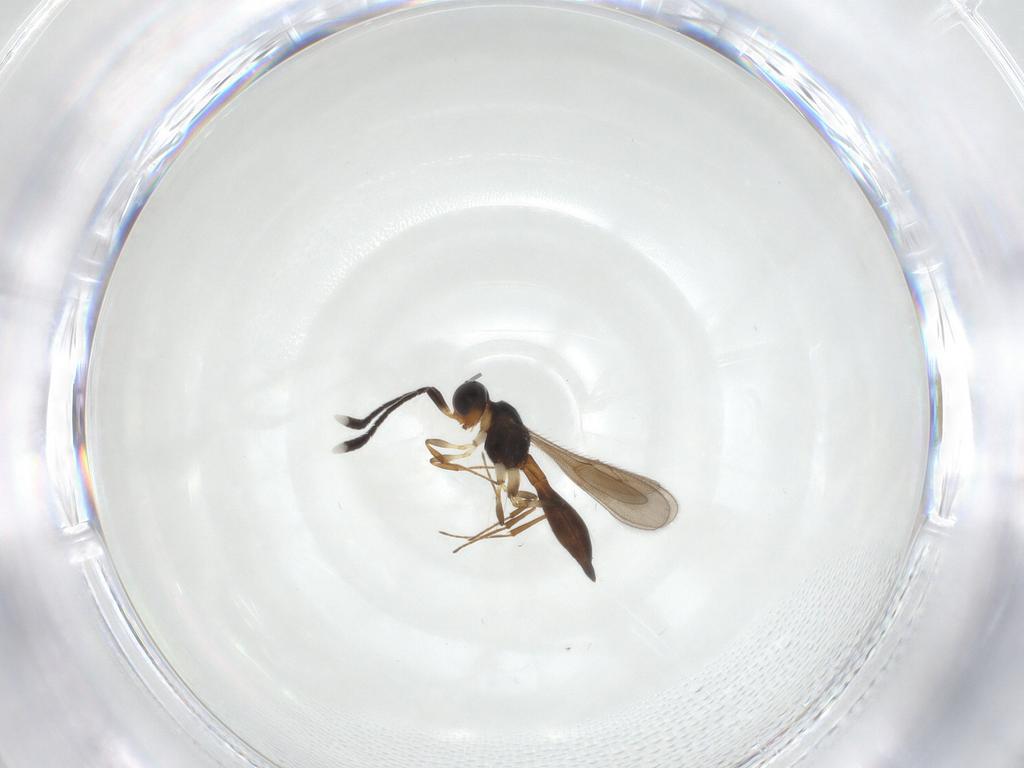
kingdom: Animalia
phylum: Arthropoda
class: Insecta
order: Hymenoptera
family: Scelionidae
